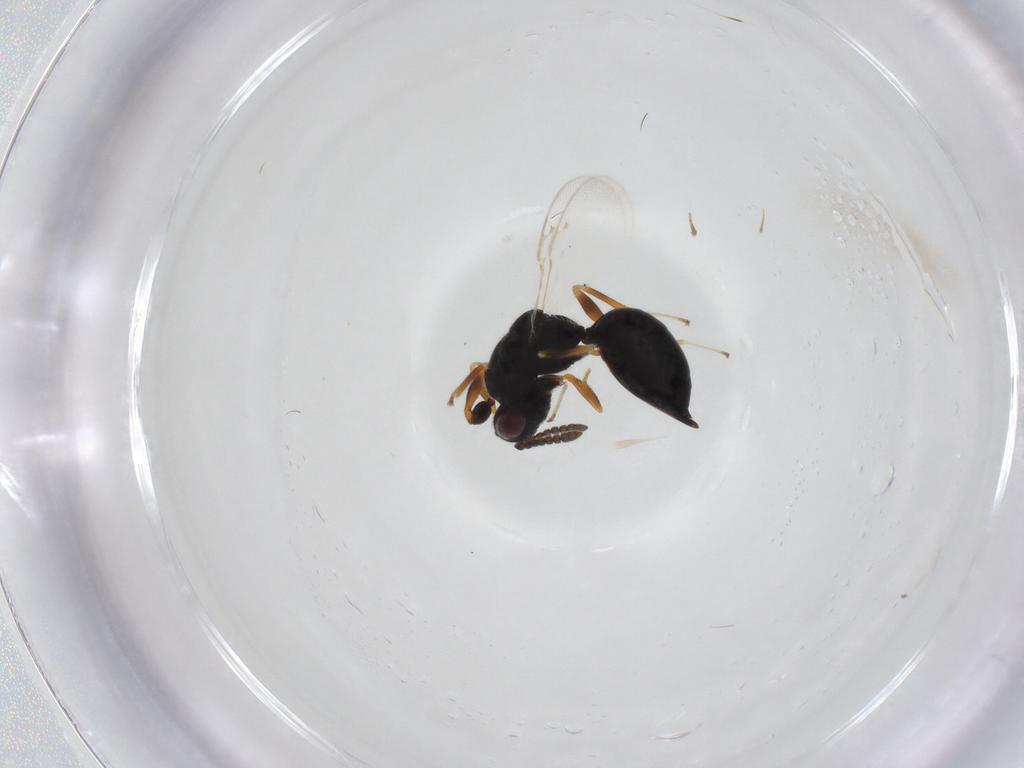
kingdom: Animalia
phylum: Arthropoda
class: Insecta
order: Hymenoptera
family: Eurytomidae
